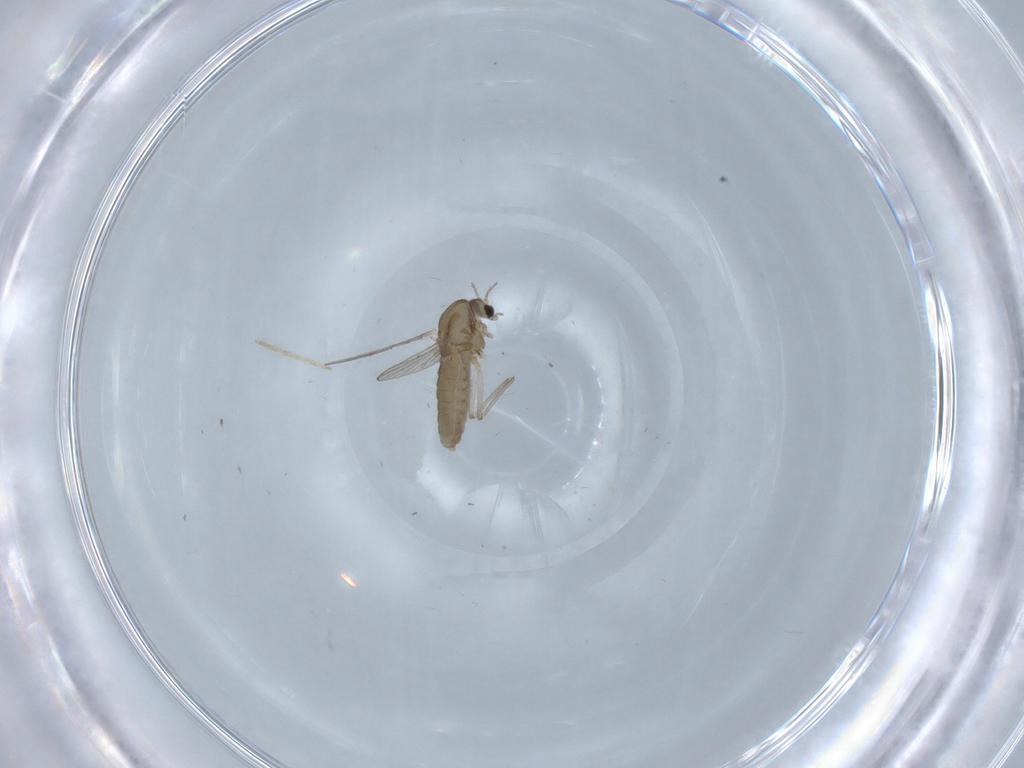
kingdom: Animalia
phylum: Arthropoda
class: Insecta
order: Diptera
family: Chironomidae
